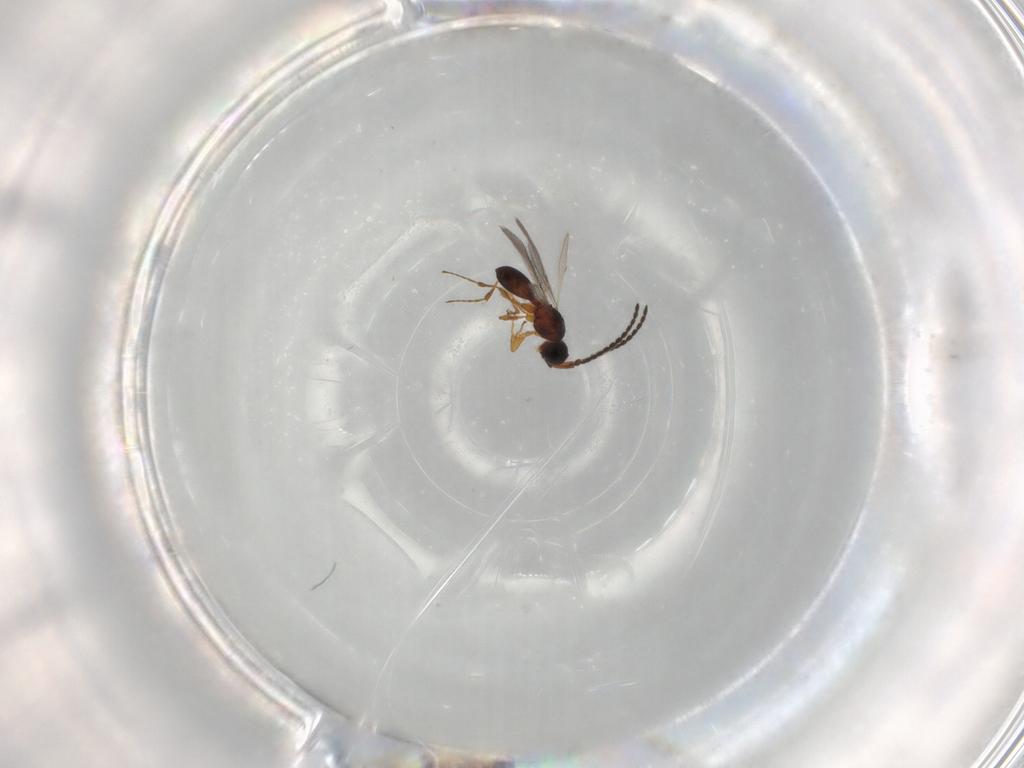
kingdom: Animalia
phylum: Arthropoda
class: Insecta
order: Hymenoptera
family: Diapriidae
